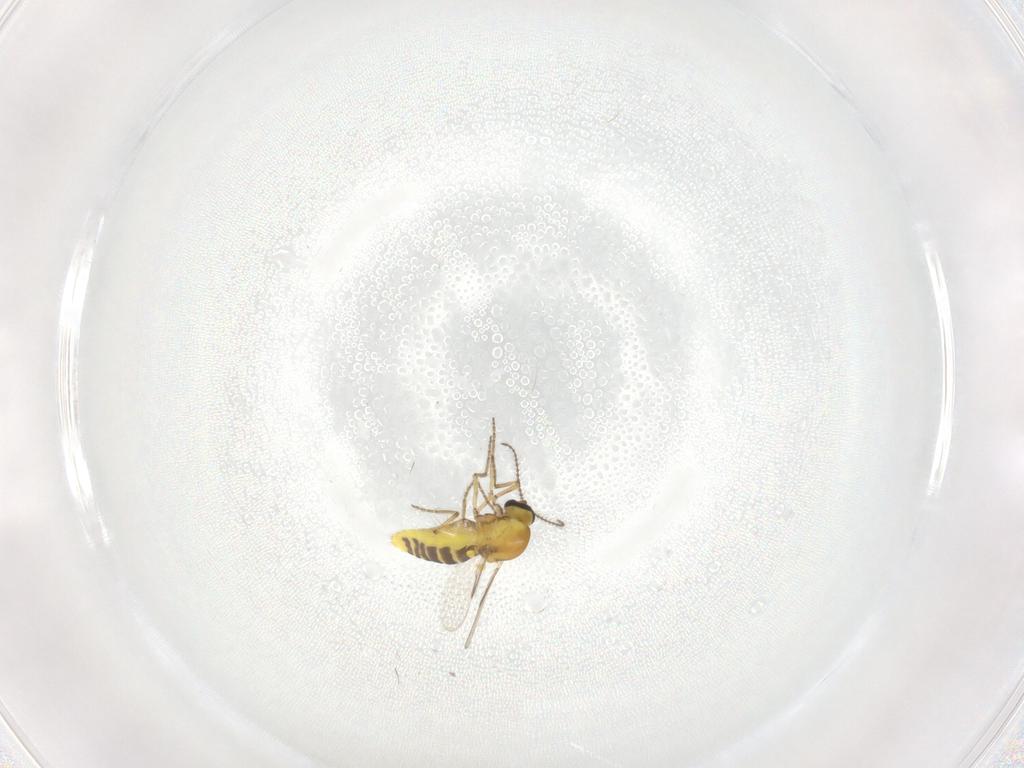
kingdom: Animalia
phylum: Arthropoda
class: Insecta
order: Diptera
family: Ceratopogonidae
